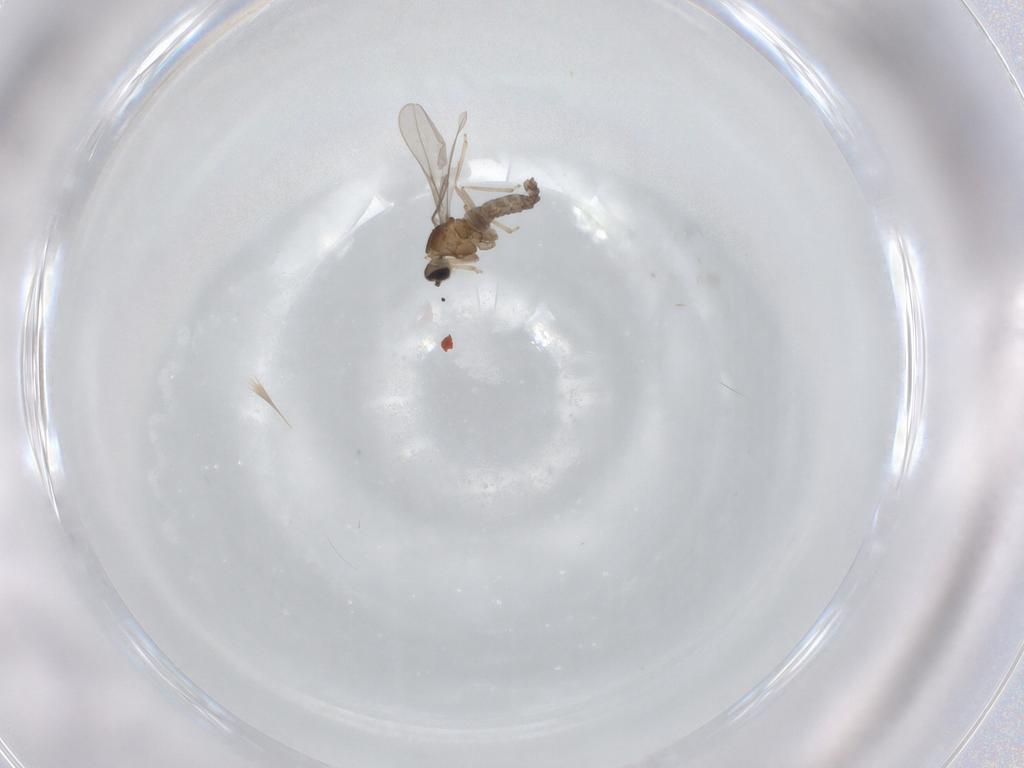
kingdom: Animalia
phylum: Arthropoda
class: Insecta
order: Diptera
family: Cecidomyiidae
